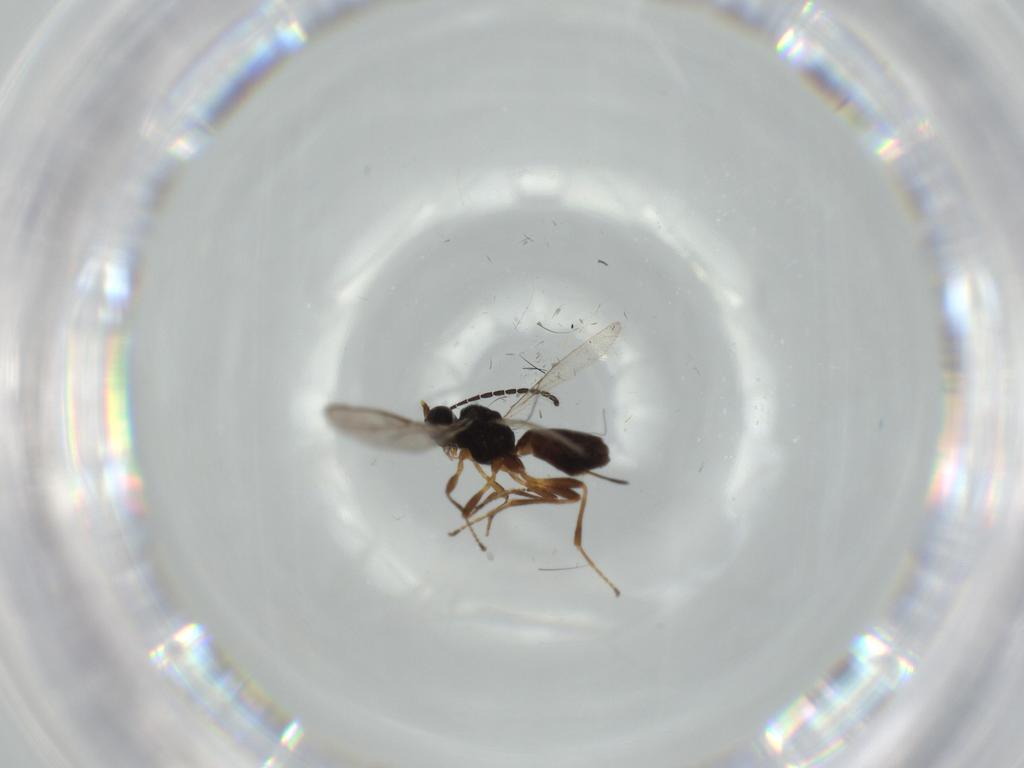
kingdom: Animalia
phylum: Arthropoda
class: Insecta
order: Hymenoptera
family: Braconidae
